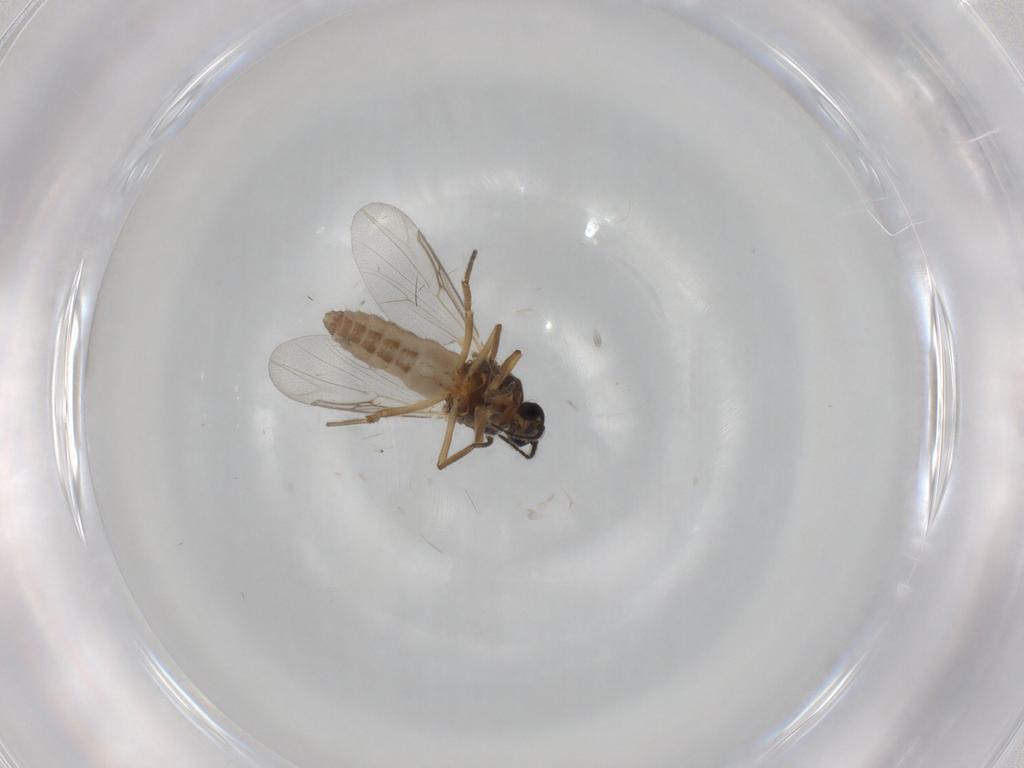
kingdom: Animalia
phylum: Arthropoda
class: Insecta
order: Diptera
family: Ceratopogonidae
